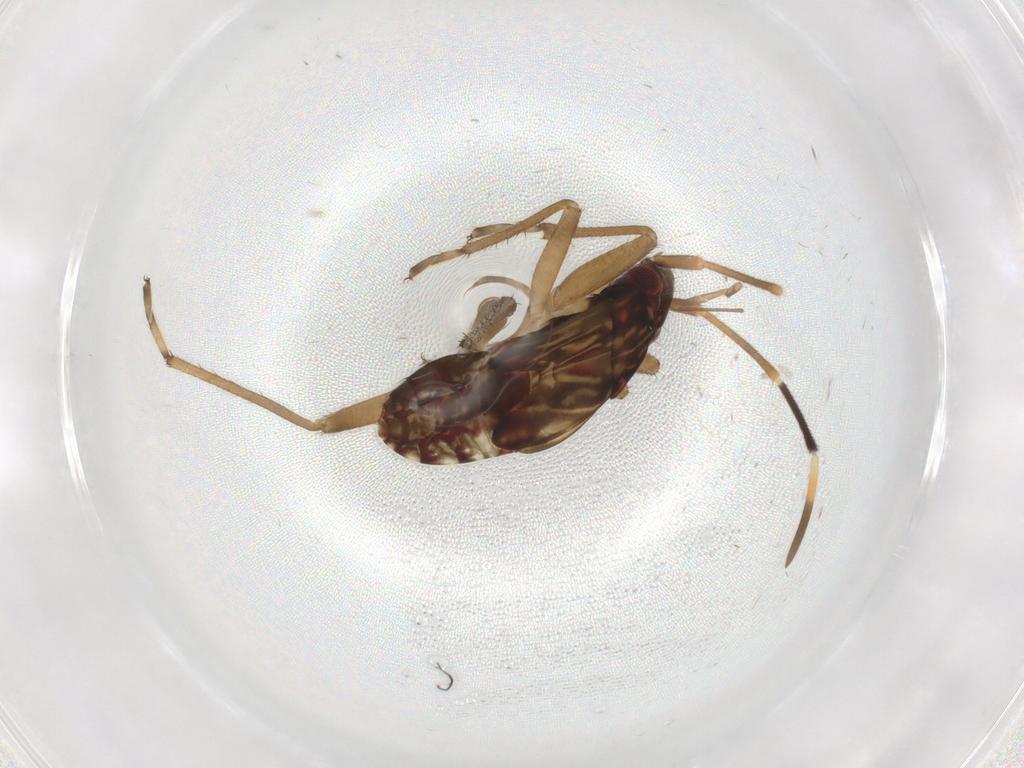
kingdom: Animalia
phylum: Arthropoda
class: Insecta
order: Hemiptera
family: Rhyparochromidae
